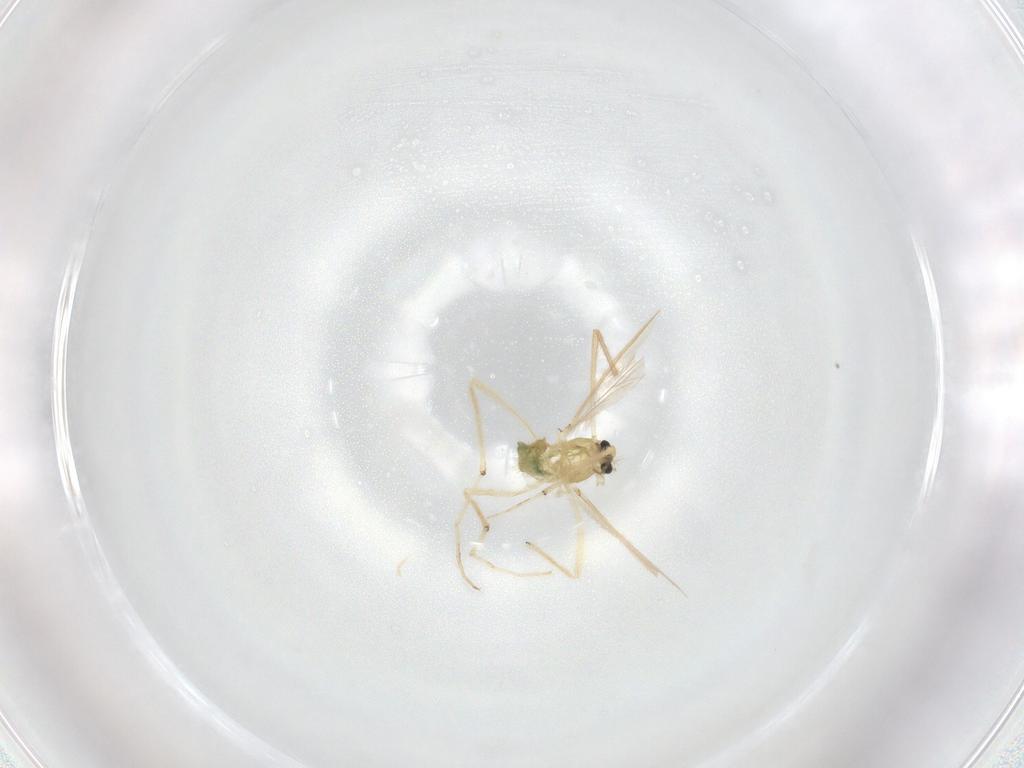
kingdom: Animalia
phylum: Arthropoda
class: Insecta
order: Diptera
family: Chironomidae
